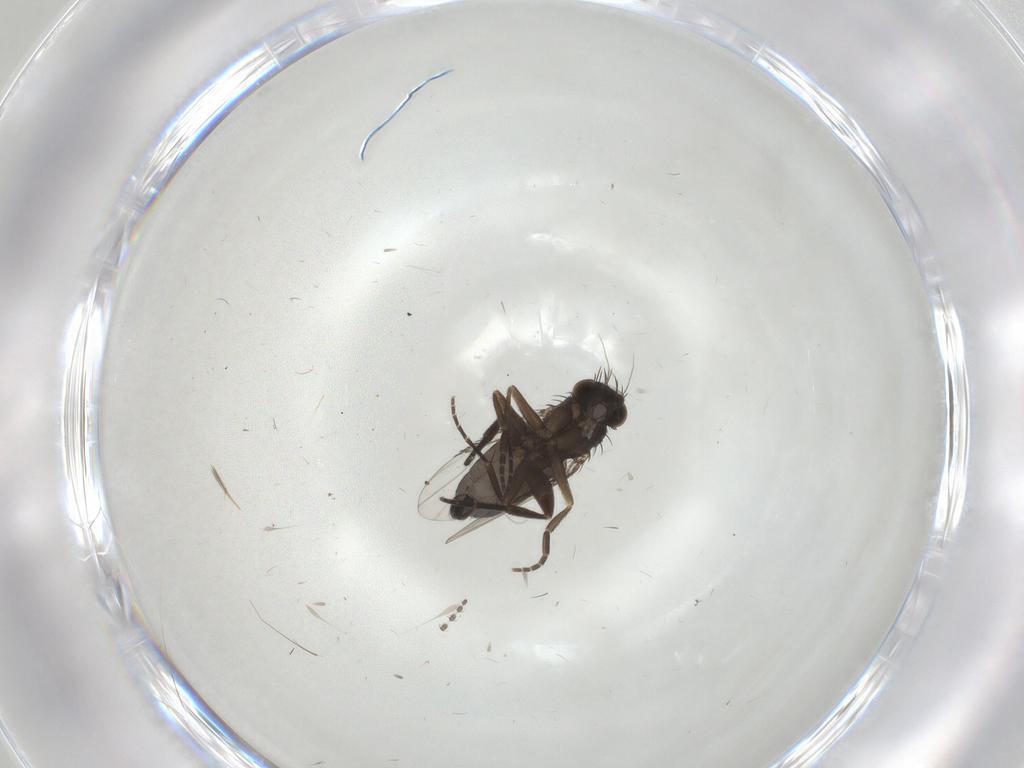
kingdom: Animalia
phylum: Arthropoda
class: Insecta
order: Diptera
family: Phoridae
